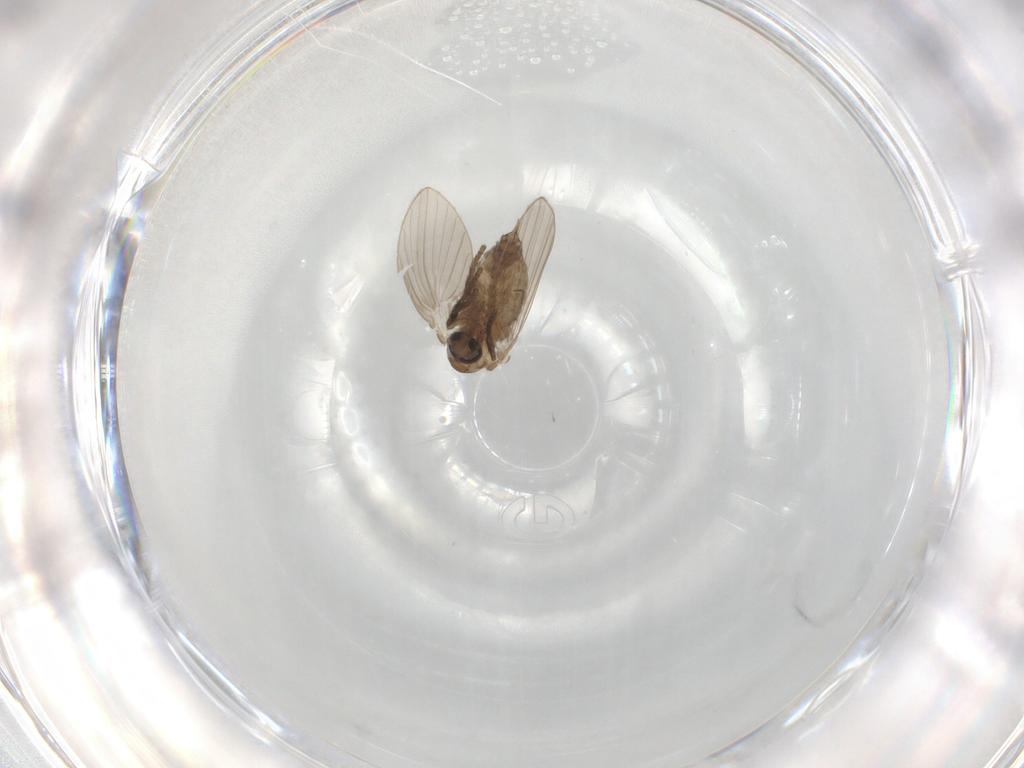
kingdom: Animalia
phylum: Arthropoda
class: Insecta
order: Diptera
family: Psychodidae
